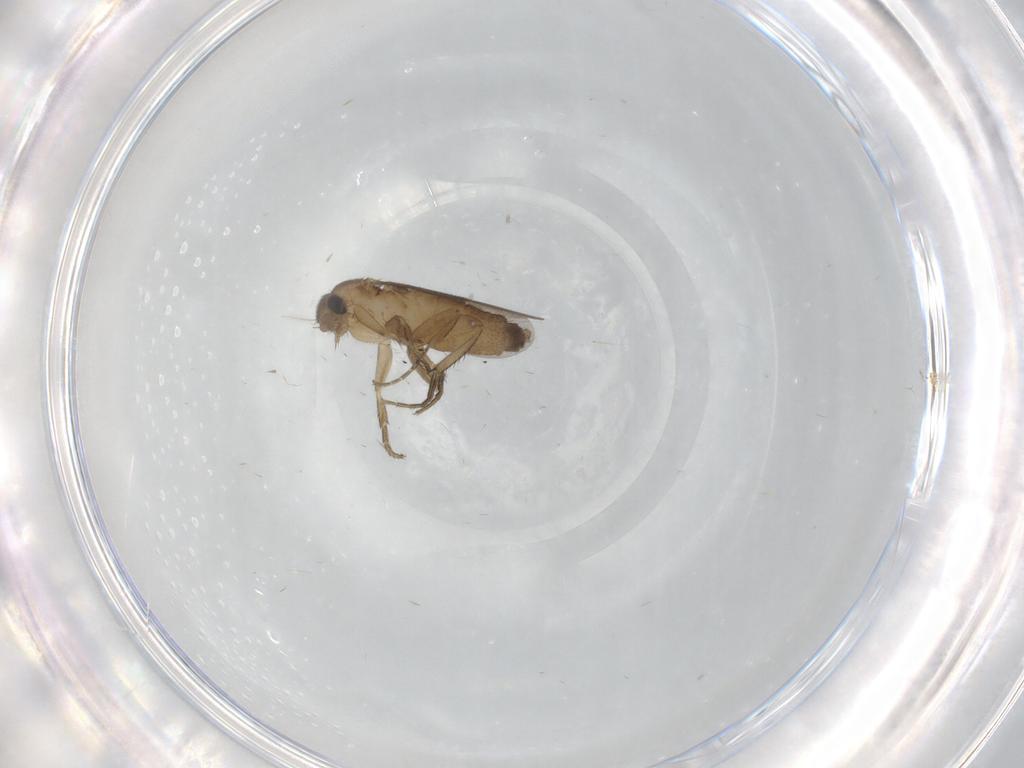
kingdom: Animalia
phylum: Arthropoda
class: Insecta
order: Diptera
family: Phoridae
